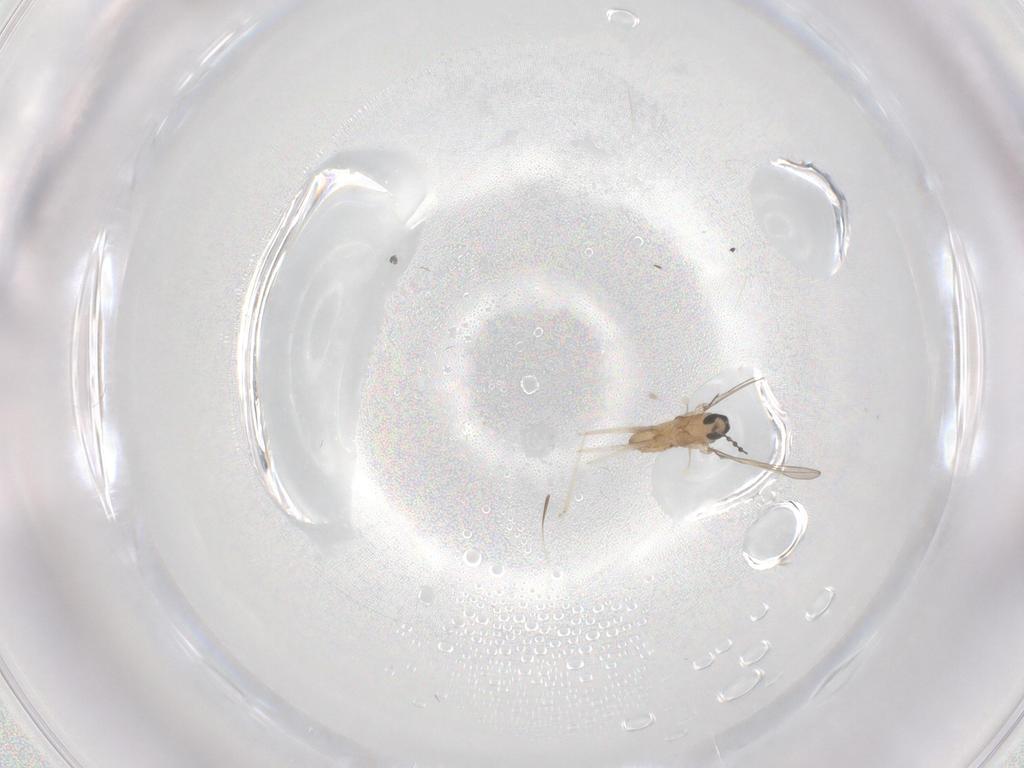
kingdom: Animalia
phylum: Arthropoda
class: Insecta
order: Diptera
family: Cecidomyiidae
